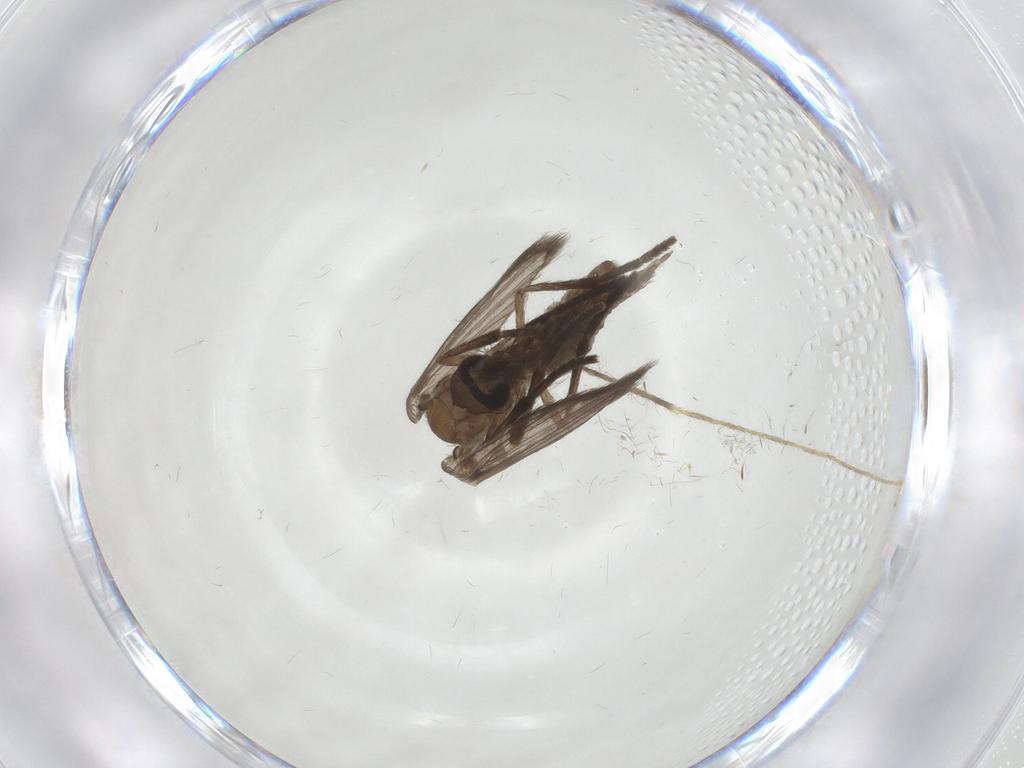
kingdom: Animalia
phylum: Arthropoda
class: Insecta
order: Diptera
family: Psychodidae
